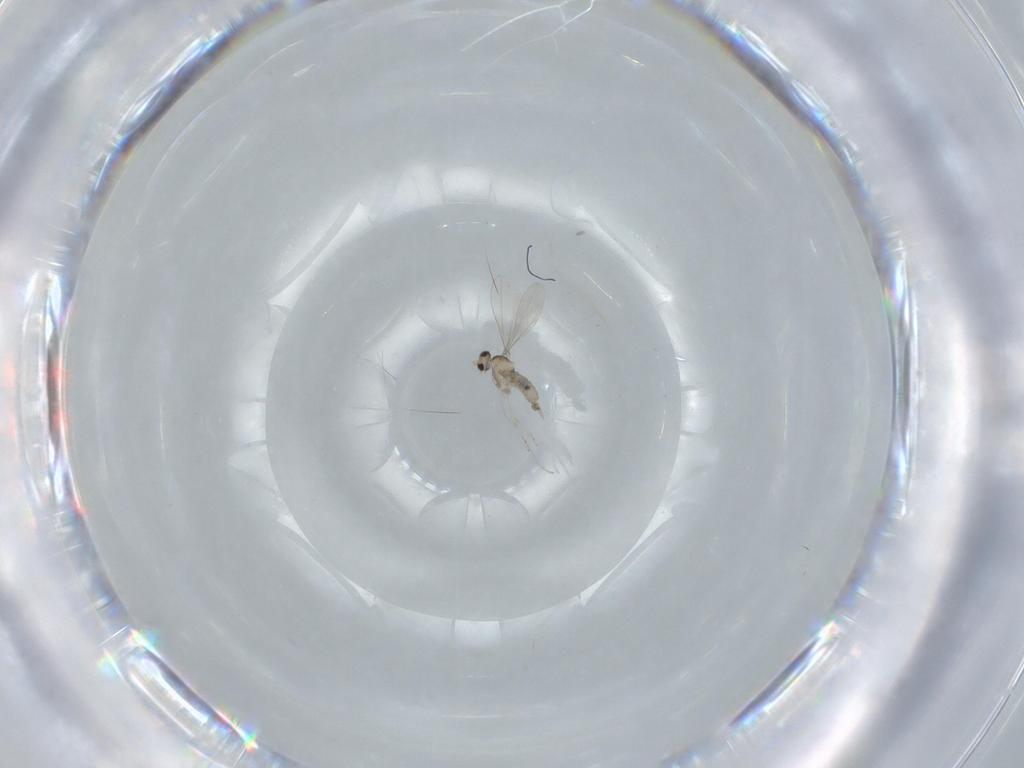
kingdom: Animalia
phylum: Arthropoda
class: Insecta
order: Diptera
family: Cecidomyiidae
